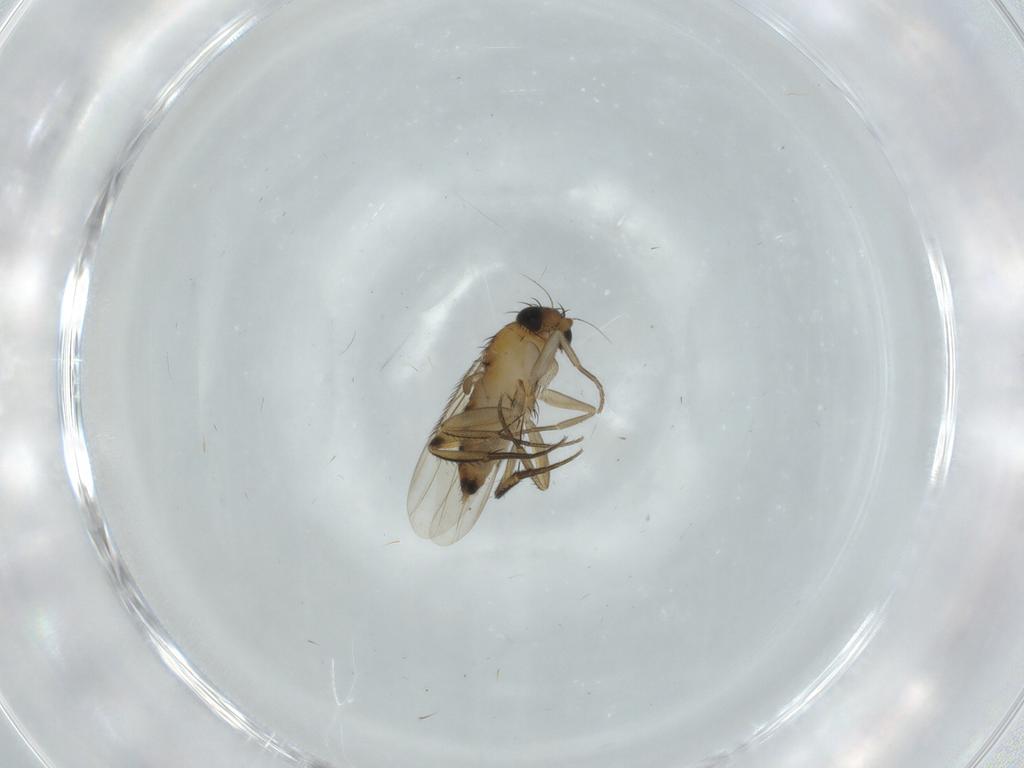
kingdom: Animalia
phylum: Arthropoda
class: Insecta
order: Diptera
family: Phoridae
